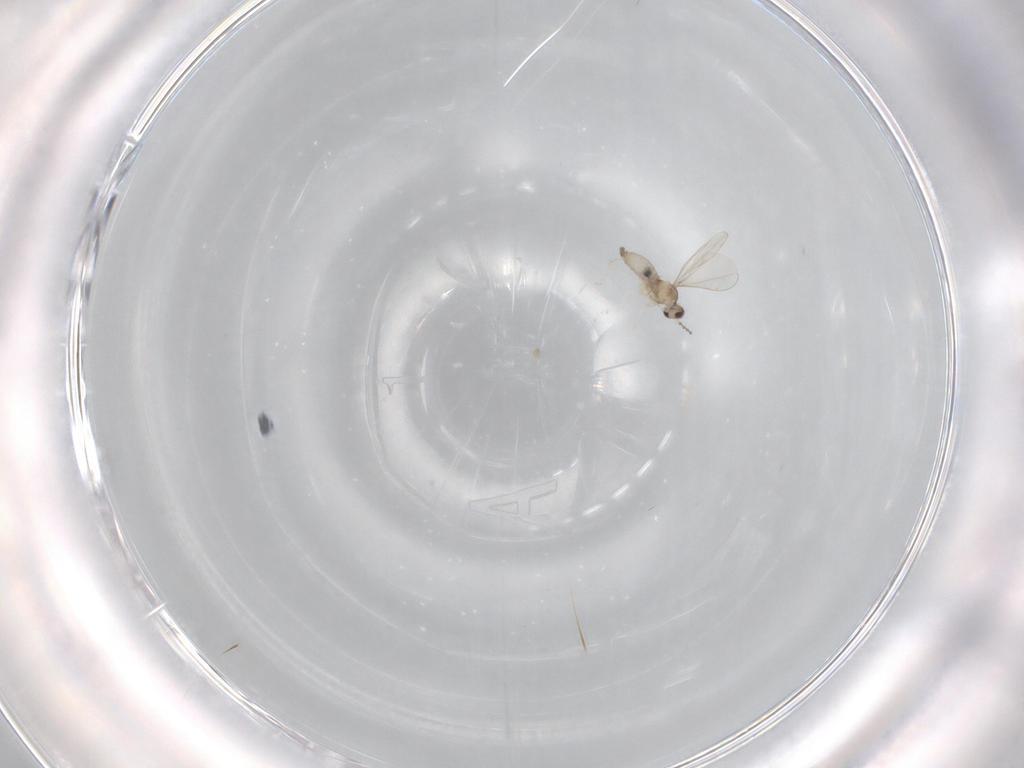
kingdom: Animalia
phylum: Arthropoda
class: Insecta
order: Diptera
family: Cecidomyiidae
